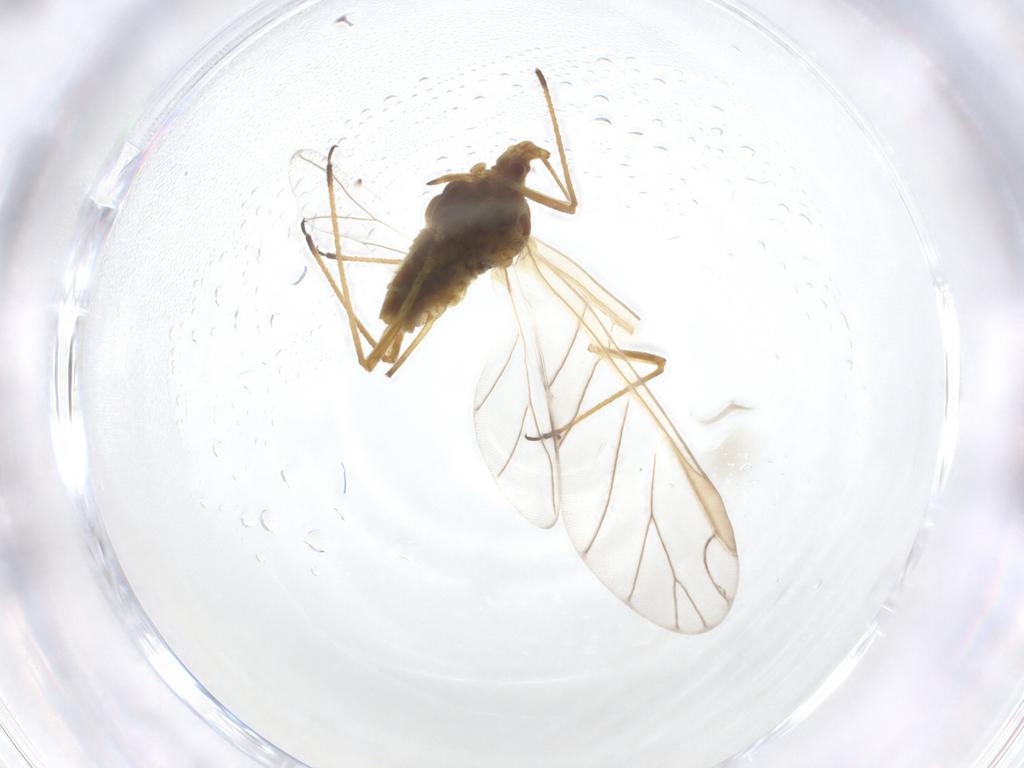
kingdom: Animalia
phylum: Arthropoda
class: Insecta
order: Hemiptera
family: Aphididae
